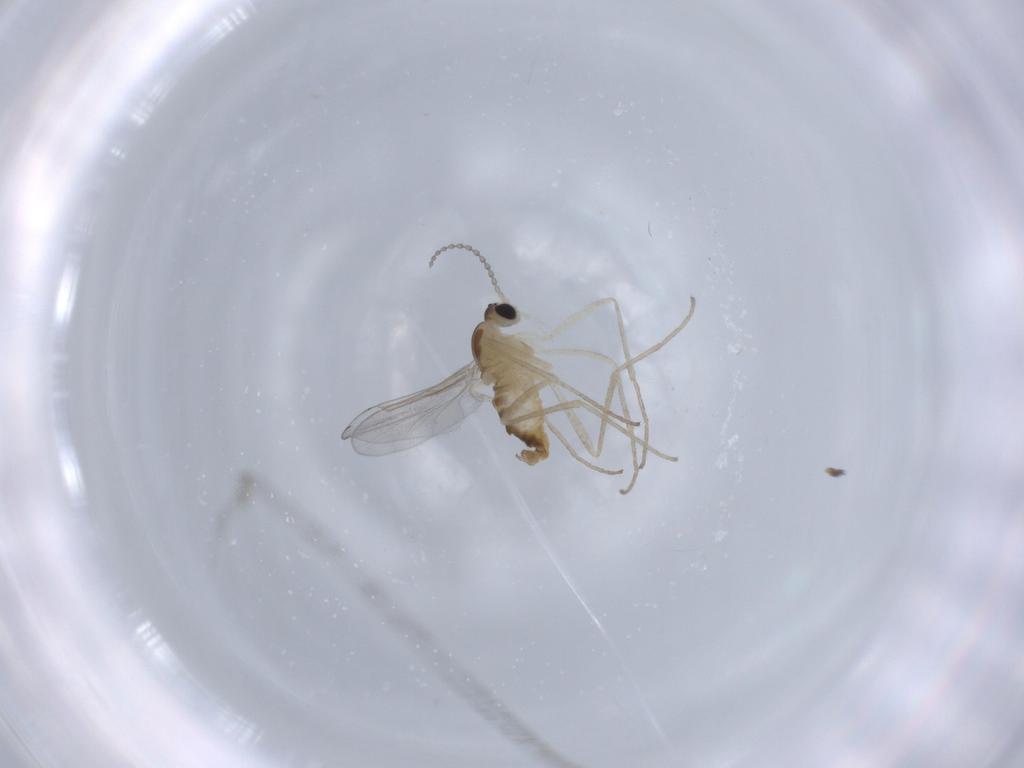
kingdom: Animalia
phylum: Arthropoda
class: Insecta
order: Diptera
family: Cecidomyiidae
